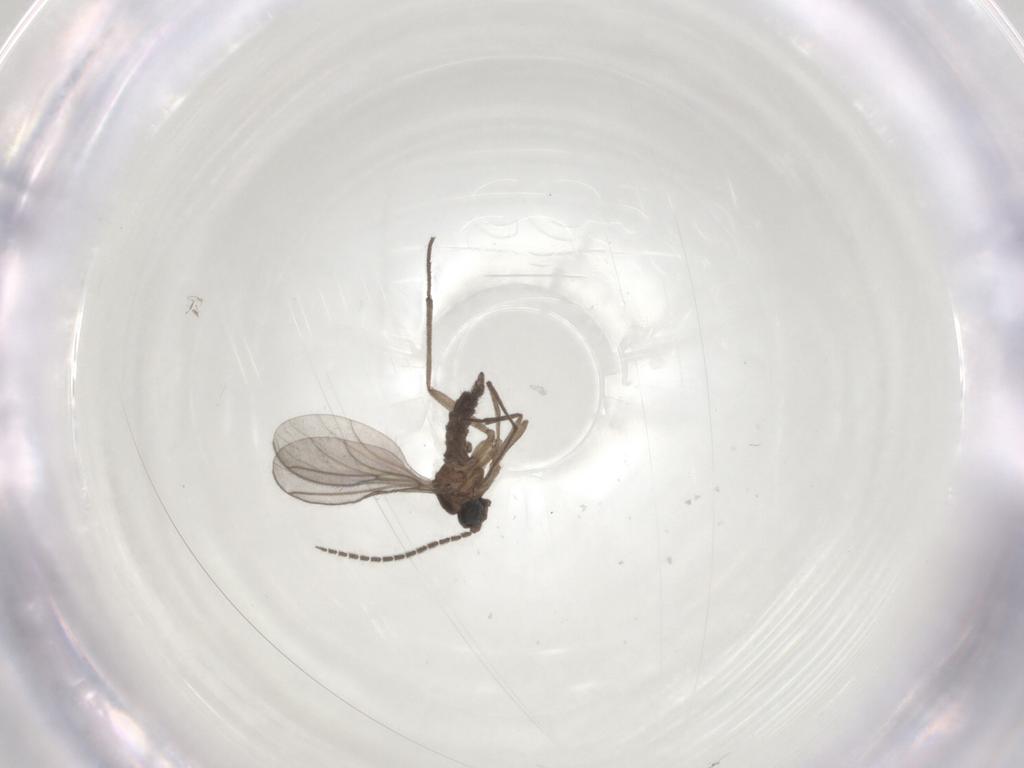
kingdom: Animalia
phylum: Arthropoda
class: Insecta
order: Diptera
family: Sciaridae
